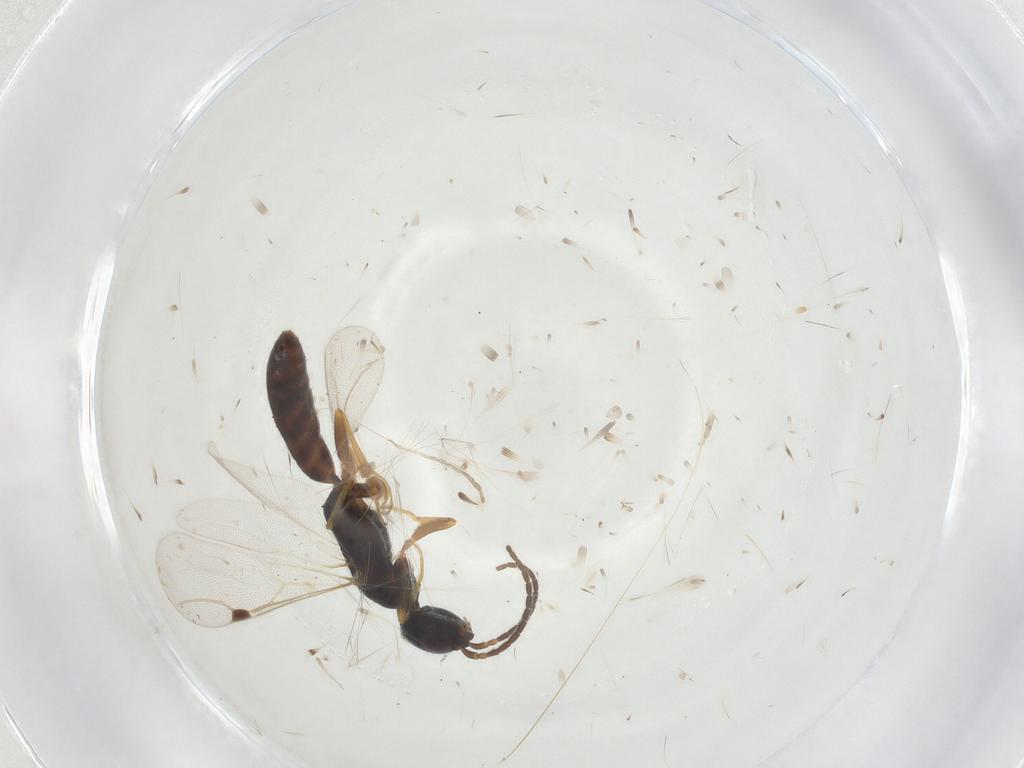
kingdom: Animalia
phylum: Arthropoda
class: Insecta
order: Hymenoptera
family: Bethylidae
